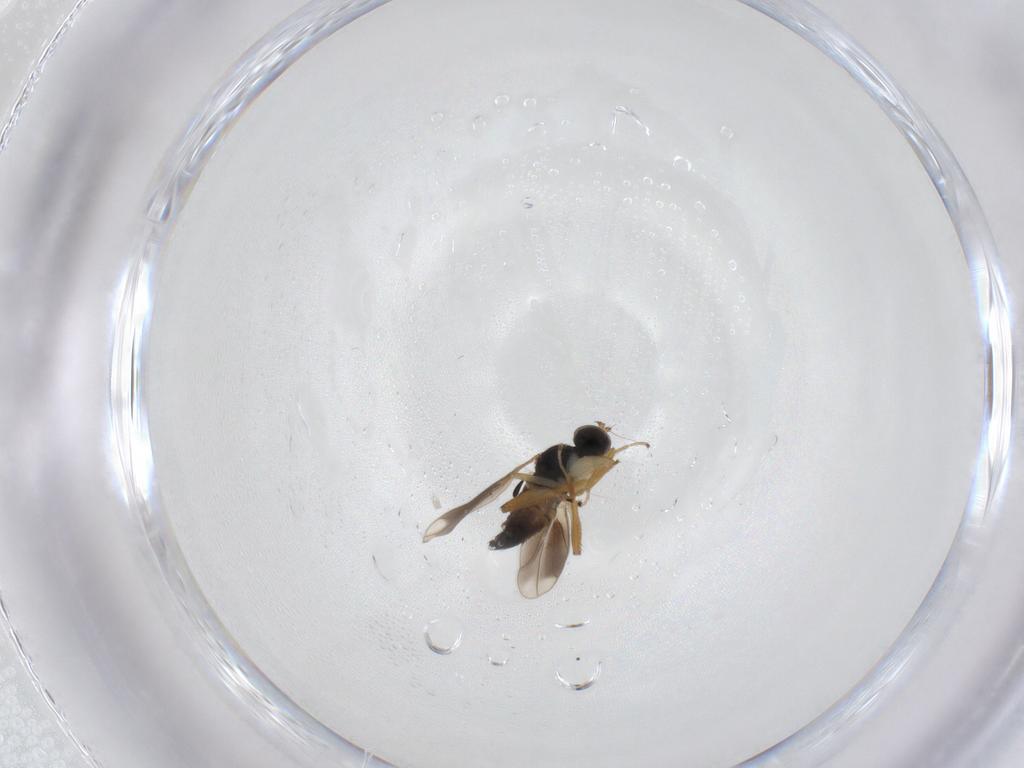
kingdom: Animalia
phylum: Arthropoda
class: Insecta
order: Diptera
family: Hybotidae
